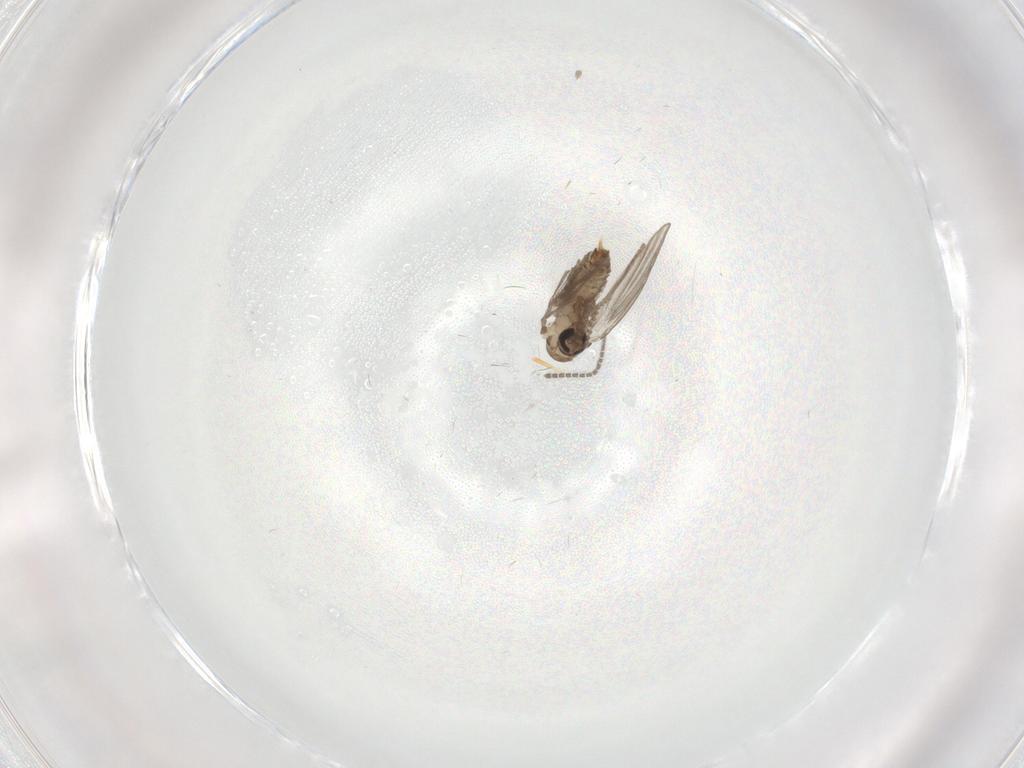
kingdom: Animalia
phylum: Arthropoda
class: Insecta
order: Diptera
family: Psychodidae
